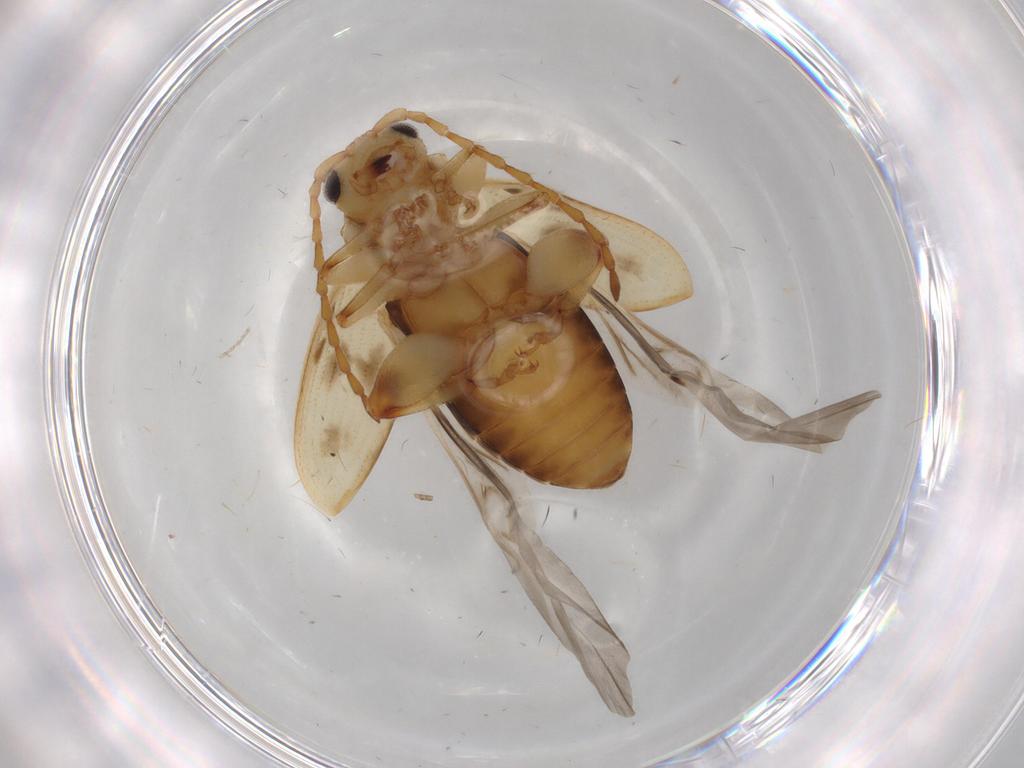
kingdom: Animalia
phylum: Arthropoda
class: Insecta
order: Coleoptera
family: Chrysomelidae
